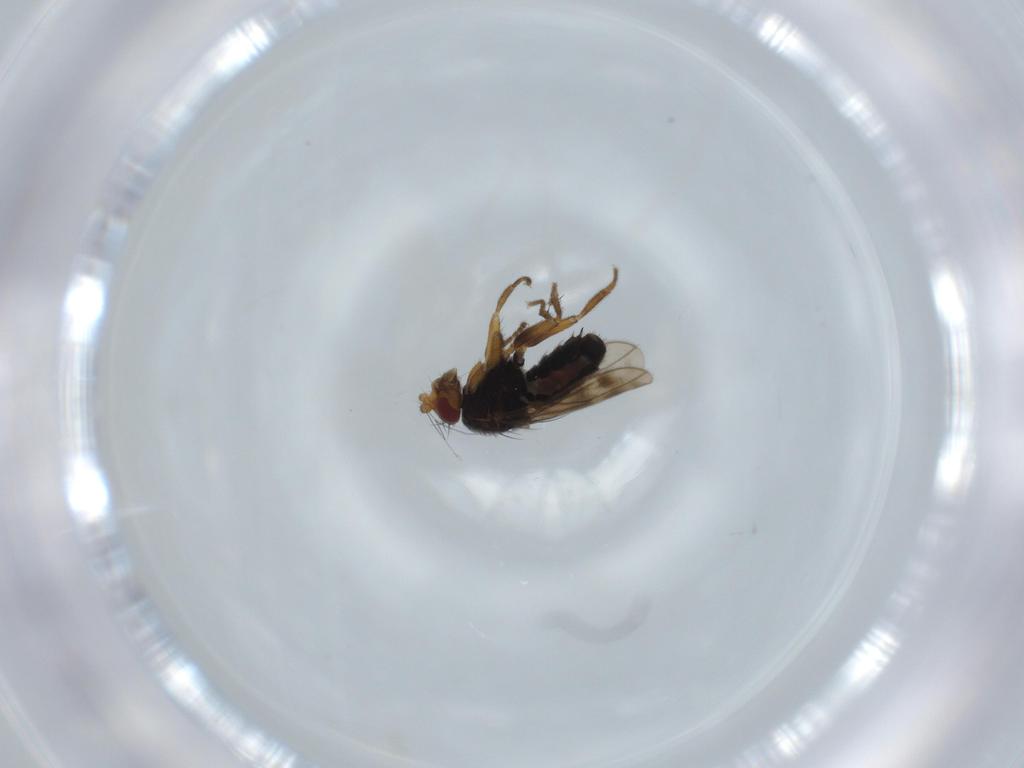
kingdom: Animalia
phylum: Arthropoda
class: Insecta
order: Diptera
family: Sphaeroceridae
